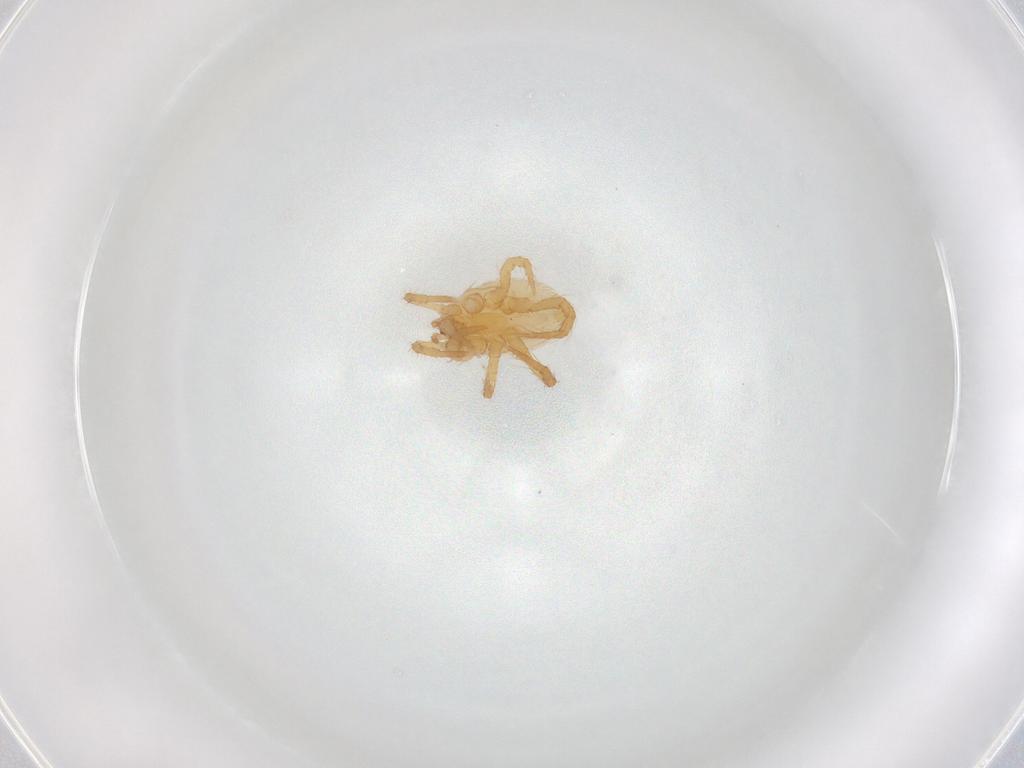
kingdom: Animalia
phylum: Arthropoda
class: Arachnida
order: Mesostigmata
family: Parasitidae
